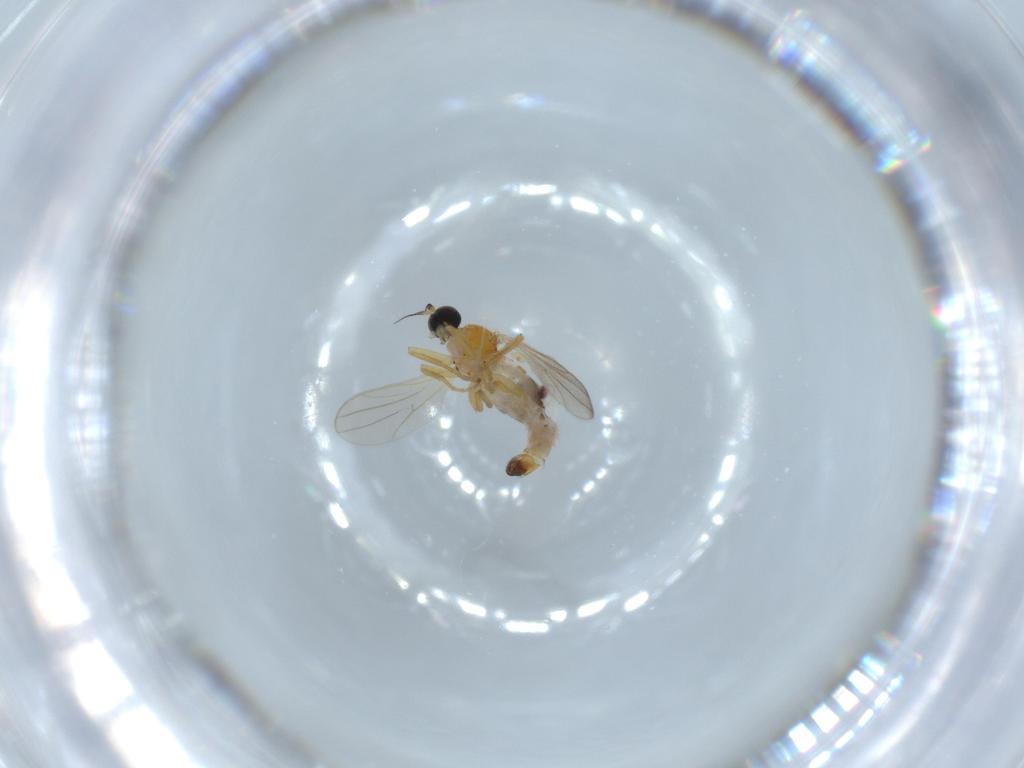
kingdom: Animalia
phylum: Arthropoda
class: Insecta
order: Diptera
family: Hybotidae
